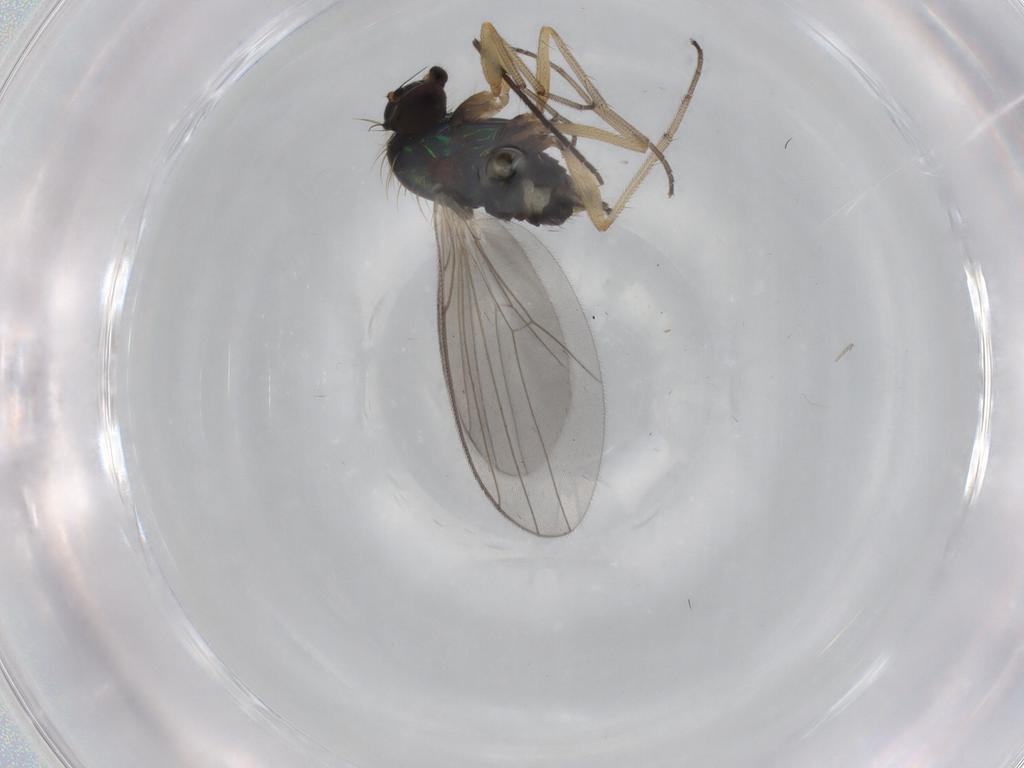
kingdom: Animalia
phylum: Arthropoda
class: Insecta
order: Diptera
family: Dolichopodidae
